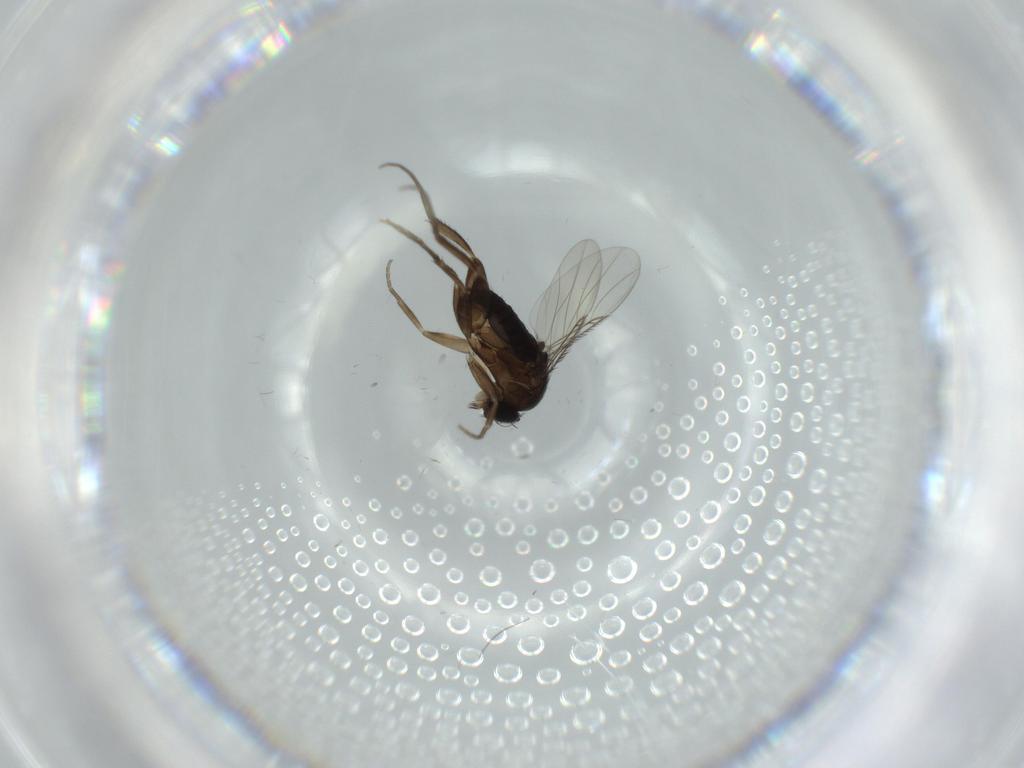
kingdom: Animalia
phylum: Arthropoda
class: Insecta
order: Diptera
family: Phoridae
